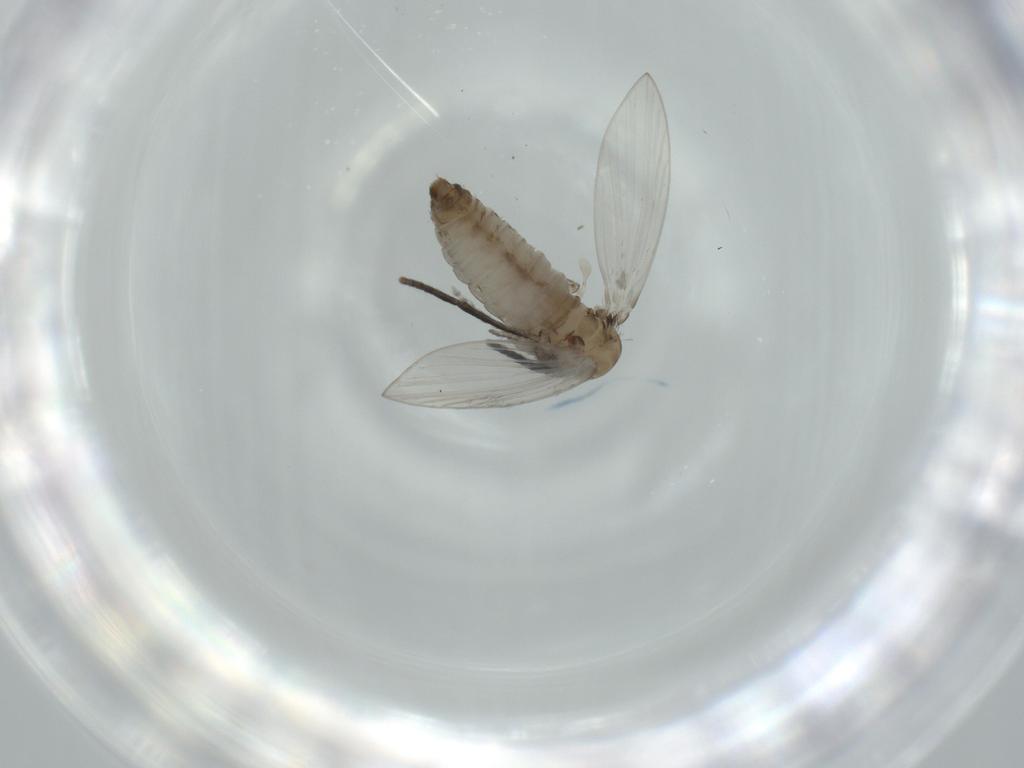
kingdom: Animalia
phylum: Arthropoda
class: Insecta
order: Diptera
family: Psychodidae
